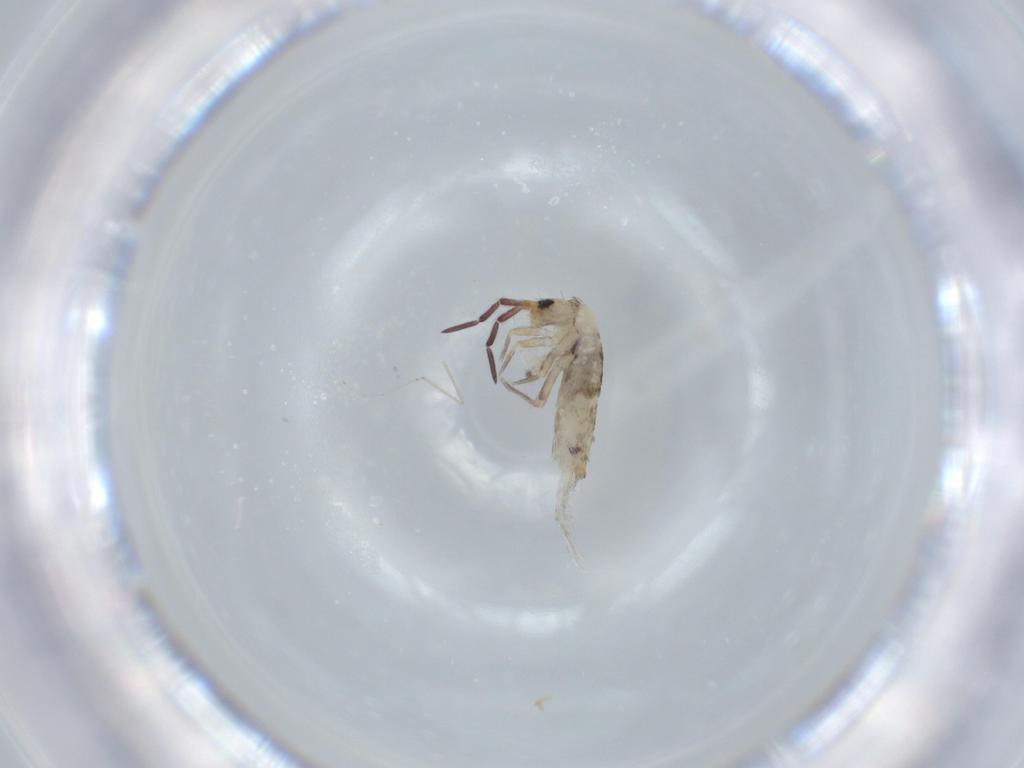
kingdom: Animalia
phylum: Arthropoda
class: Collembola
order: Entomobryomorpha
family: Entomobryidae
